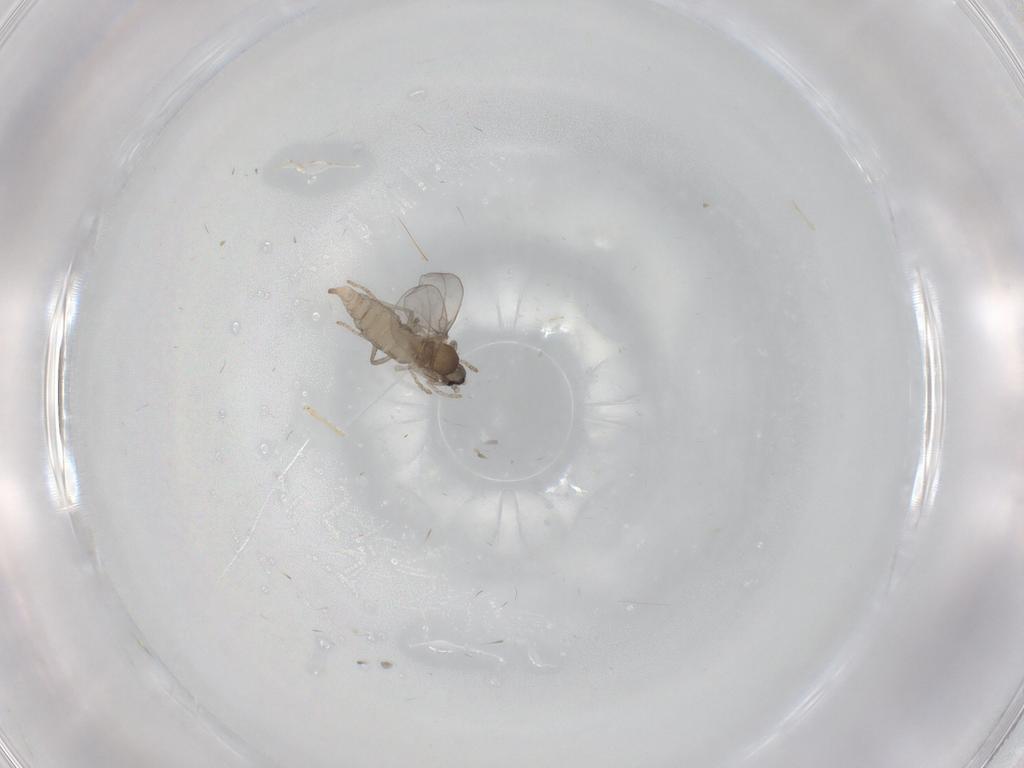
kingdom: Animalia
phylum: Arthropoda
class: Insecta
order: Diptera
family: Cecidomyiidae
